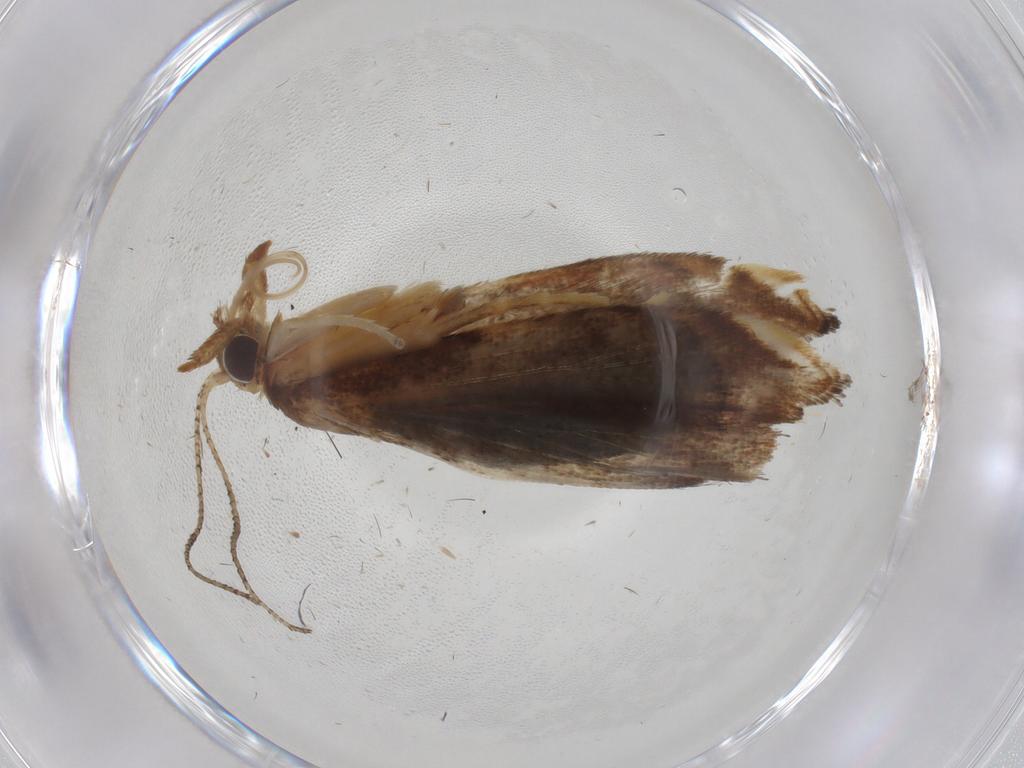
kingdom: Animalia
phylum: Arthropoda
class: Insecta
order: Lepidoptera
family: Crambidae
